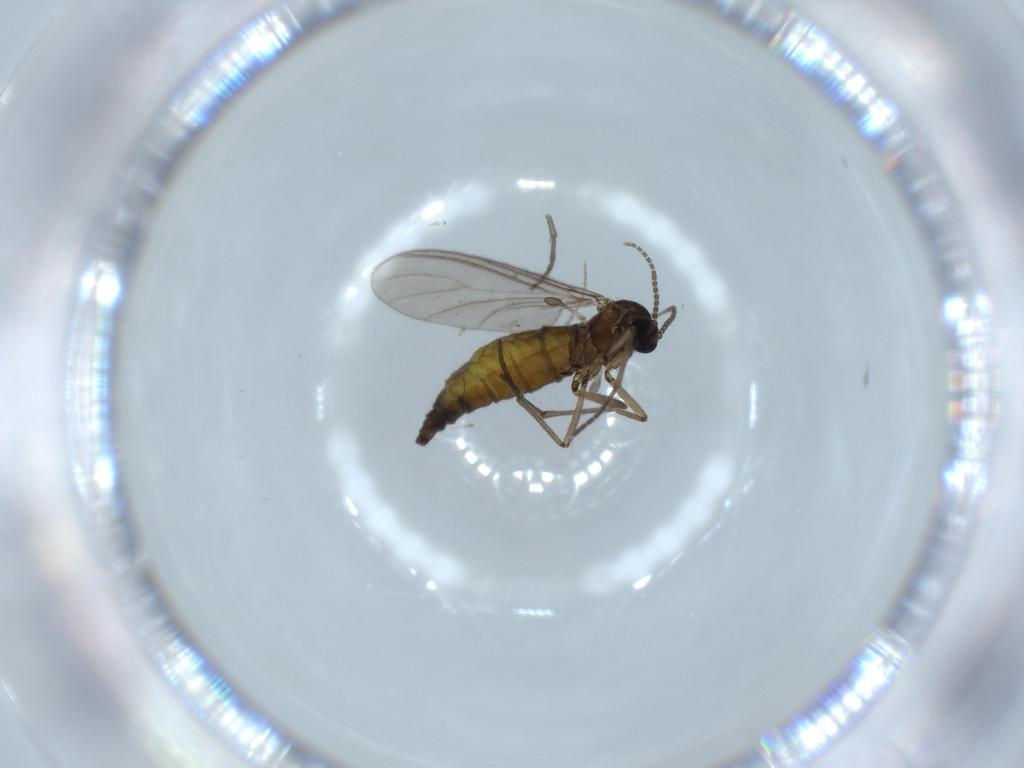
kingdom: Animalia
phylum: Arthropoda
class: Insecta
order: Diptera
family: Sciaridae
